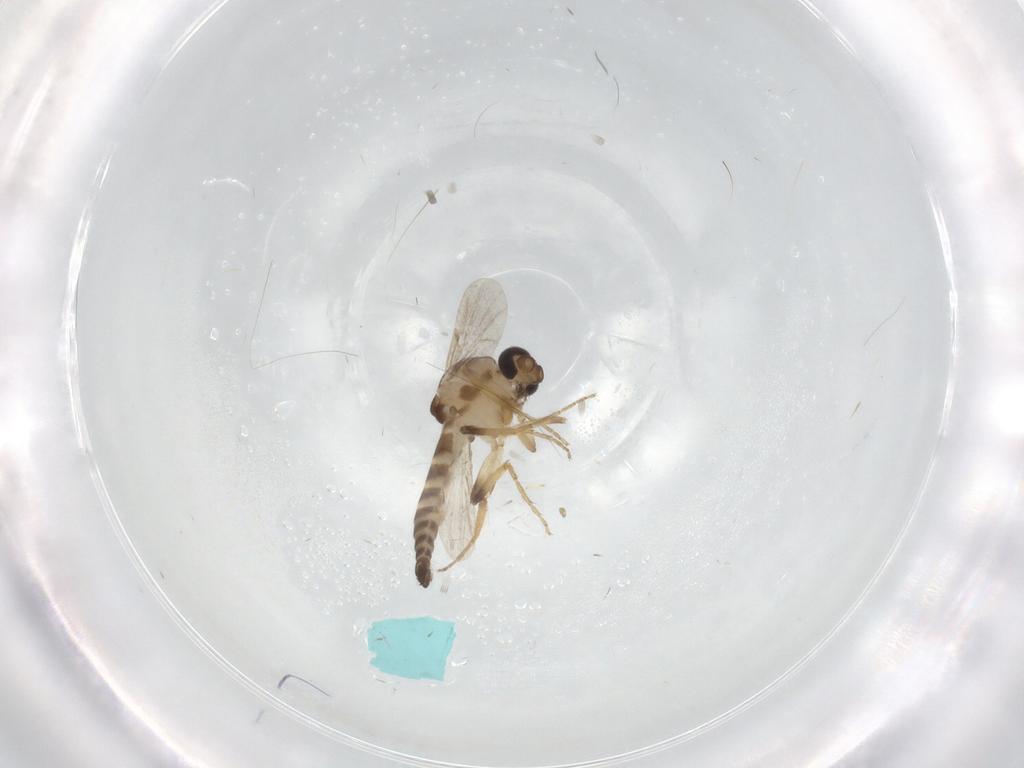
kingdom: Animalia
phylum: Arthropoda
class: Insecta
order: Diptera
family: Ceratopogonidae
